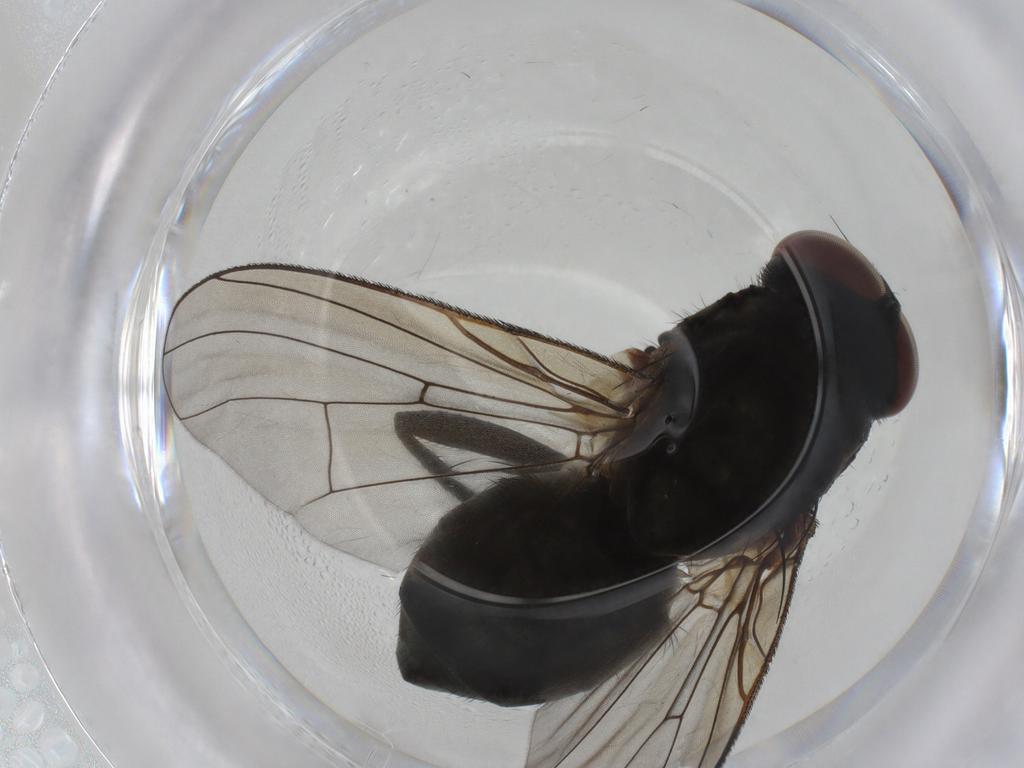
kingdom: Animalia
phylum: Arthropoda
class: Insecta
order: Diptera
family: Muscidae
